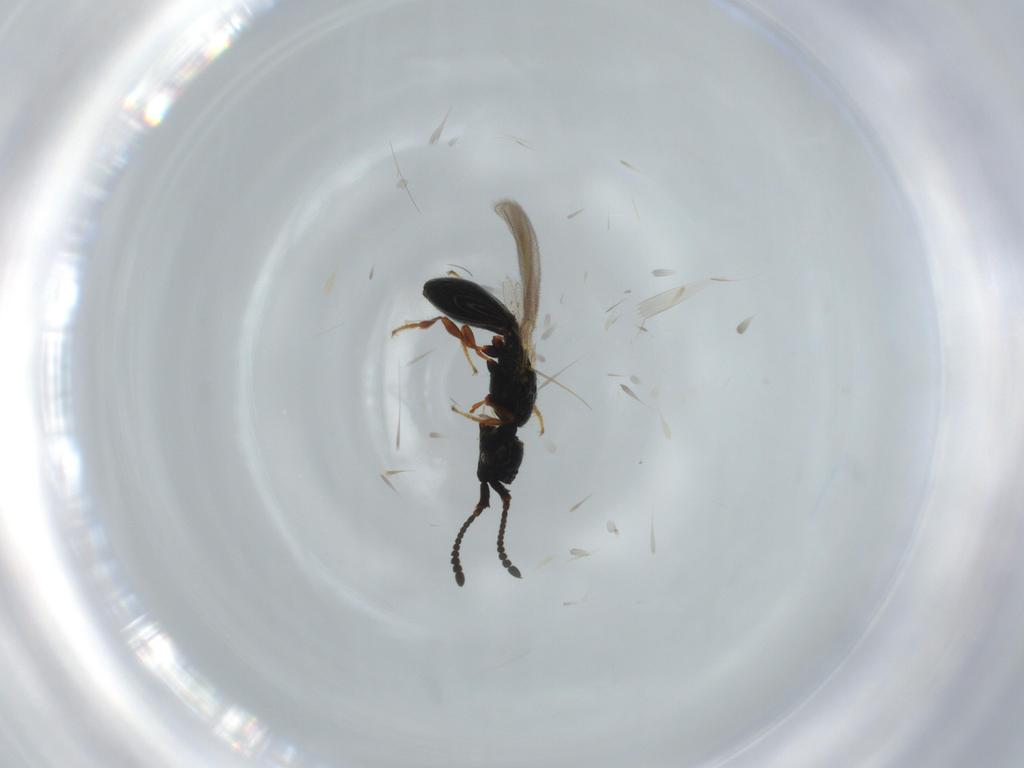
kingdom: Animalia
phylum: Arthropoda
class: Insecta
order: Hymenoptera
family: Diapriidae
